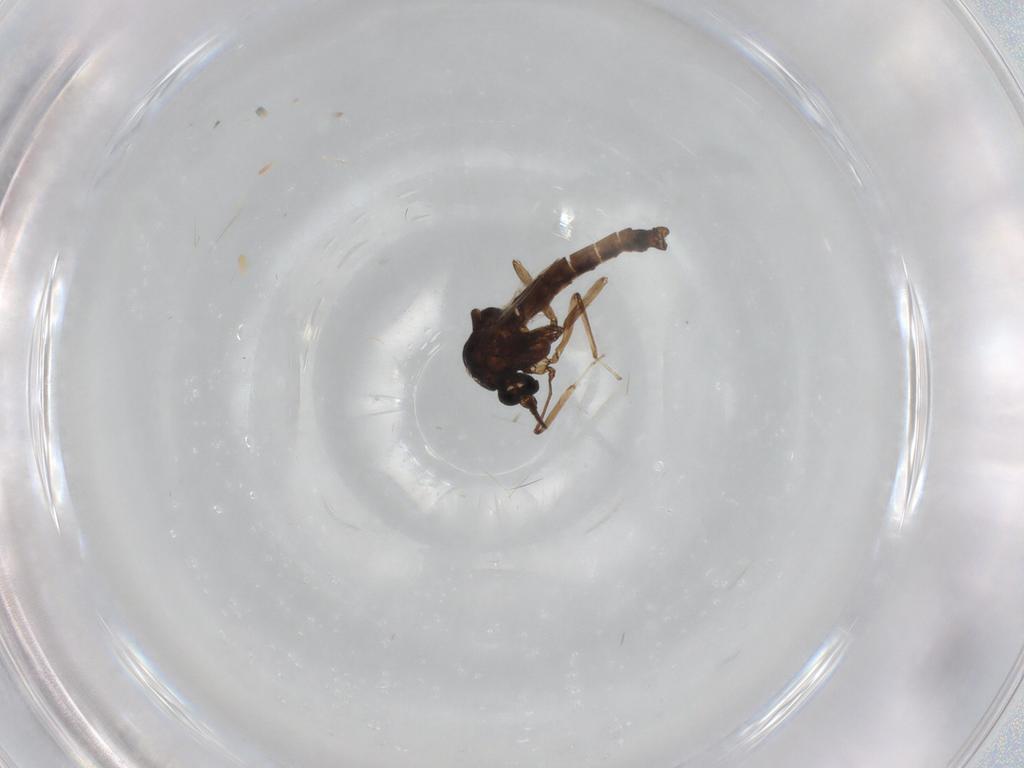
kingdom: Animalia
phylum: Arthropoda
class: Insecta
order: Diptera
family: Ceratopogonidae
